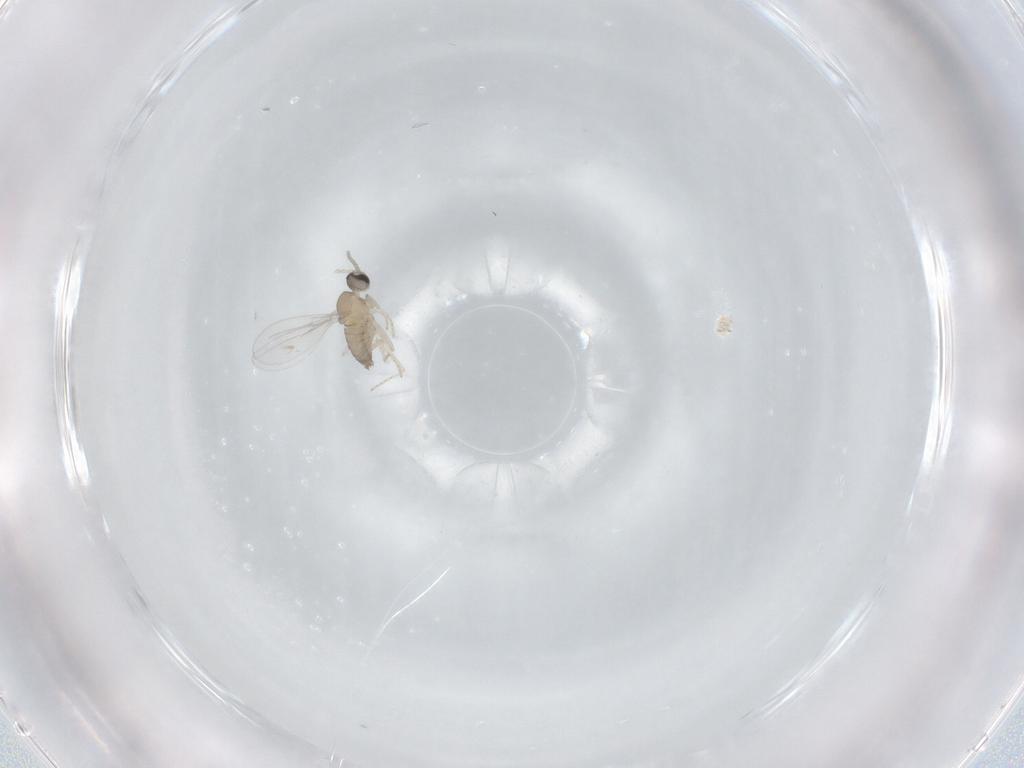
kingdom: Animalia
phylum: Arthropoda
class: Insecta
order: Diptera
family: Cecidomyiidae
